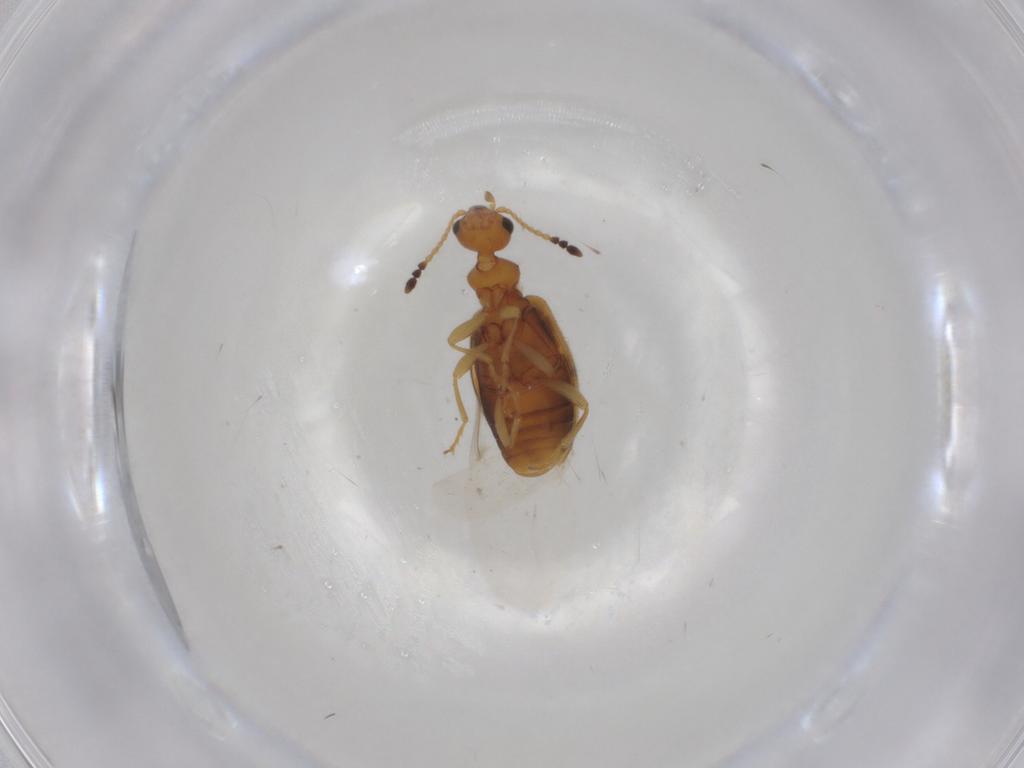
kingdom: Animalia
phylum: Arthropoda
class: Insecta
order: Coleoptera
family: Anthicidae
